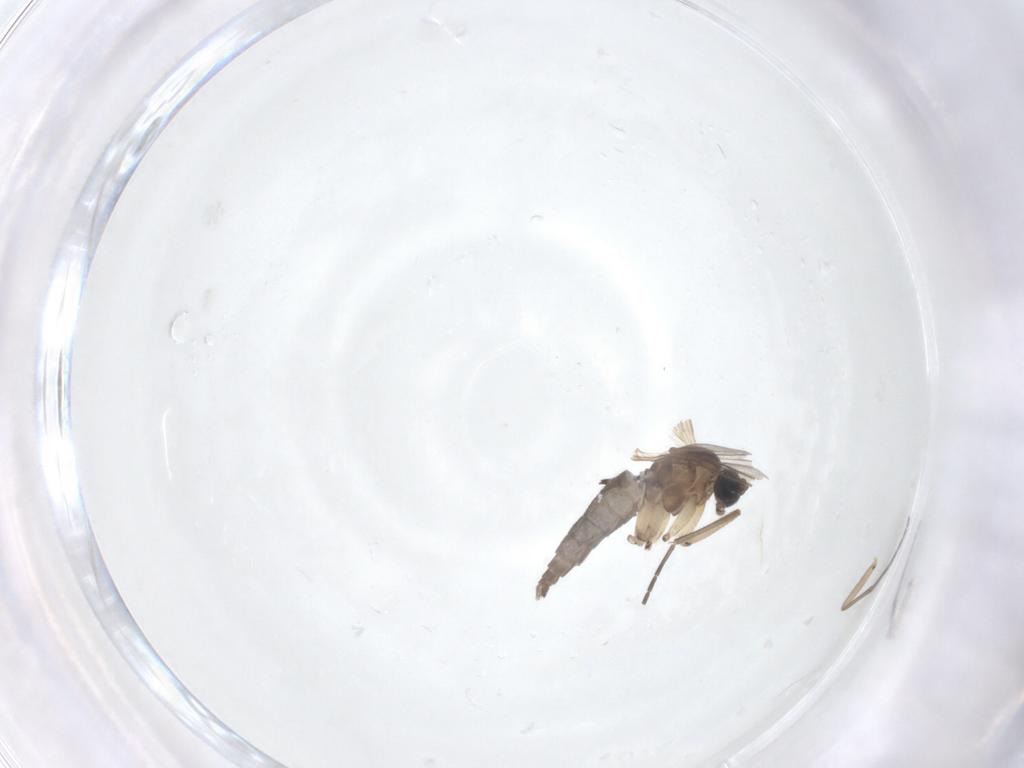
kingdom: Animalia
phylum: Arthropoda
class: Insecta
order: Diptera
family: Sciaridae
